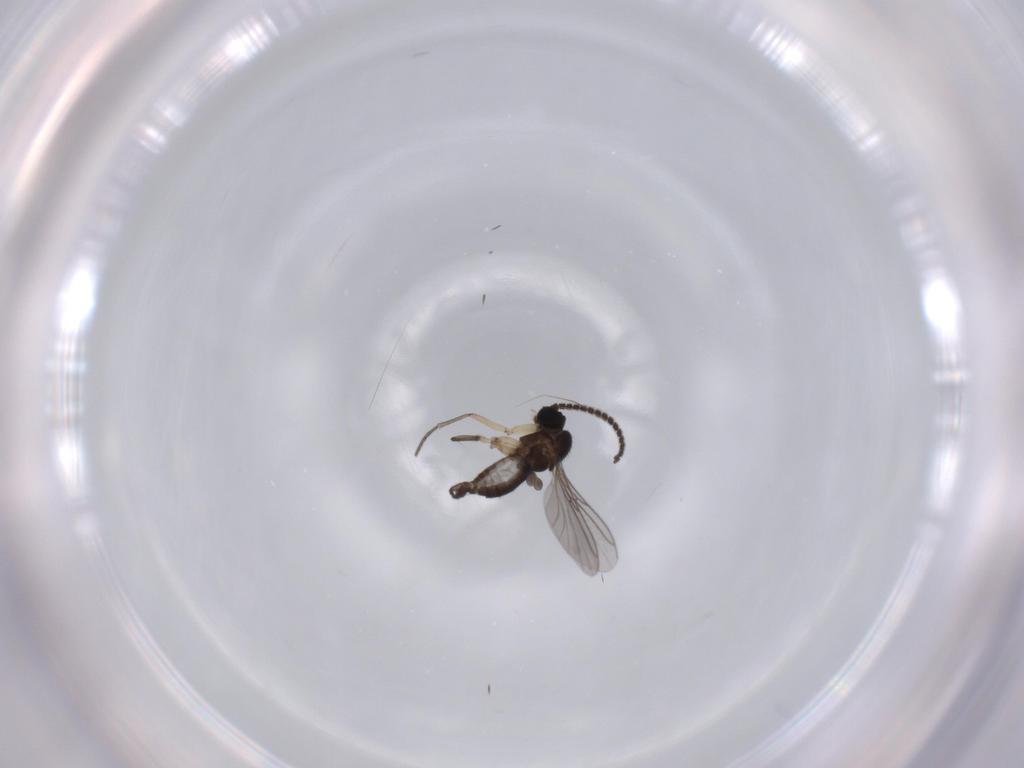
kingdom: Animalia
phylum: Arthropoda
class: Insecta
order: Diptera
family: Sciaridae
